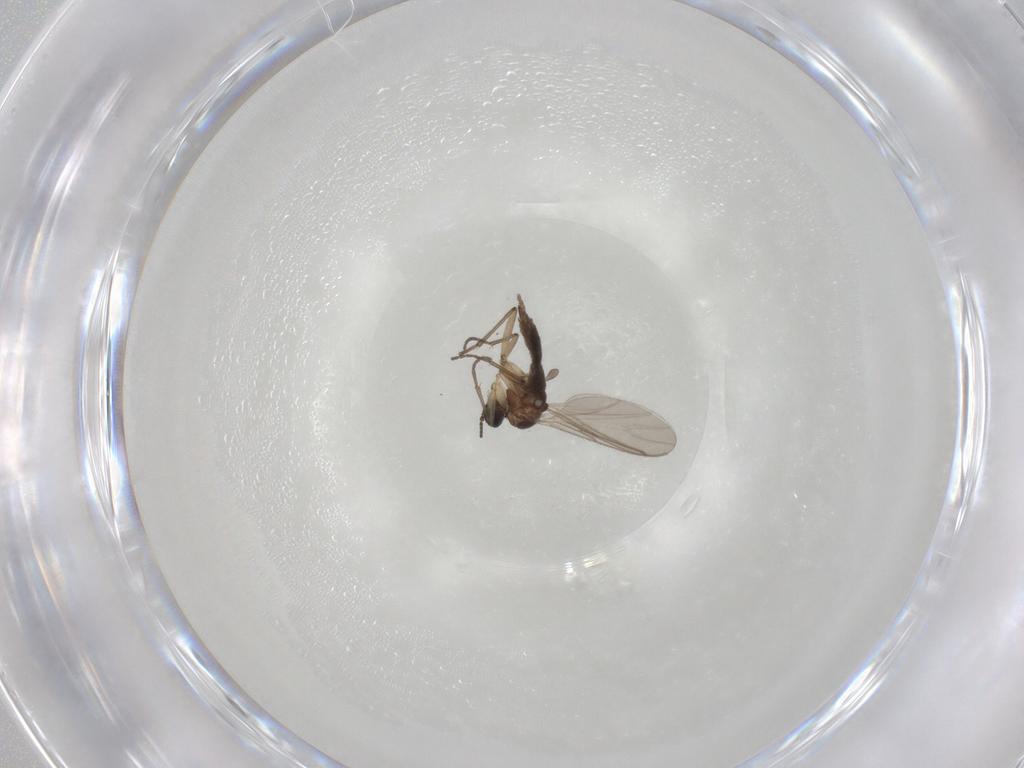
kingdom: Animalia
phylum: Arthropoda
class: Insecta
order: Diptera
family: Sciaridae
